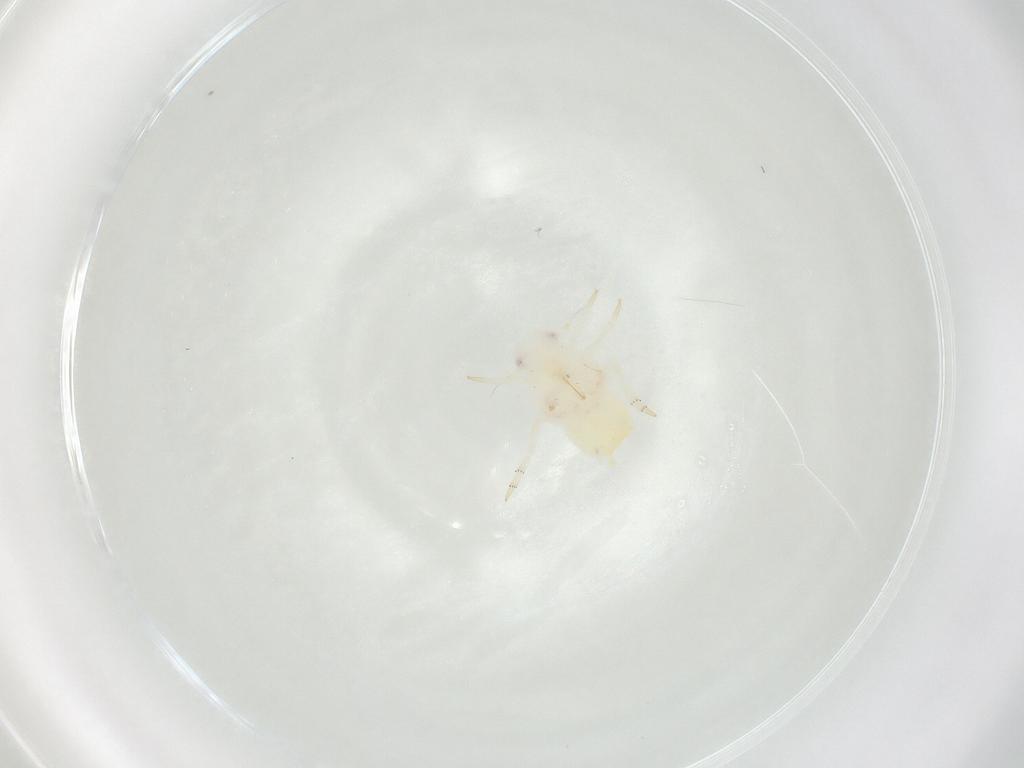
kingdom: Animalia
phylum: Arthropoda
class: Insecta
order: Hemiptera
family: Flatidae
